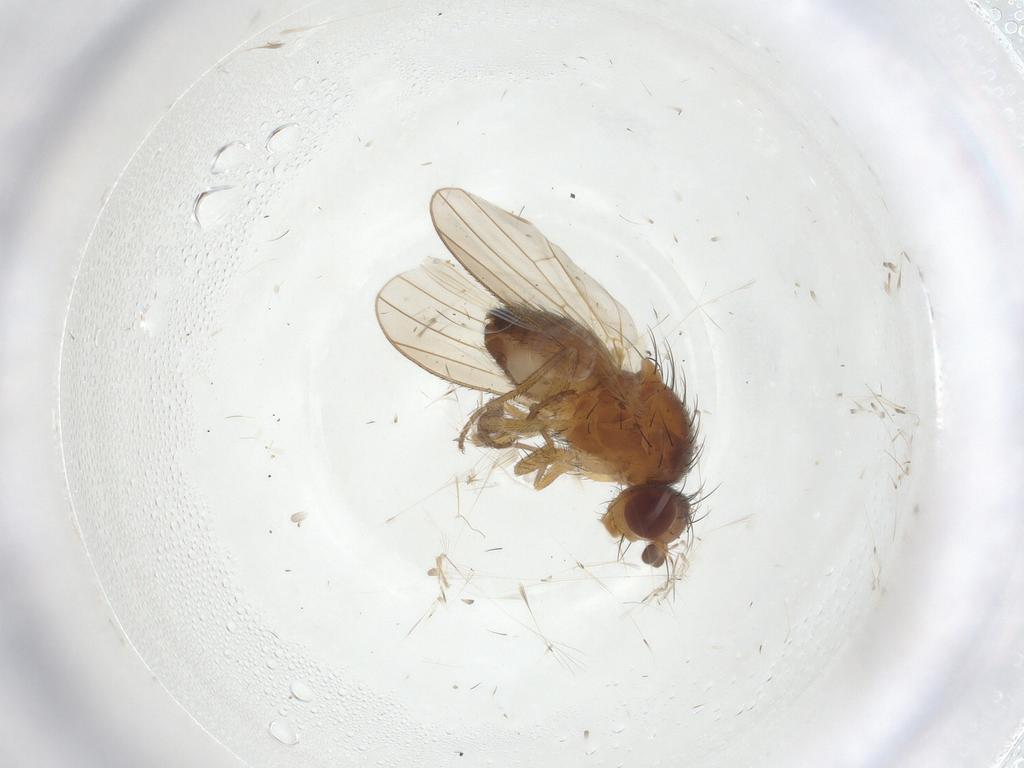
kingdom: Animalia
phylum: Arthropoda
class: Insecta
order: Diptera
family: Heleomyzidae
